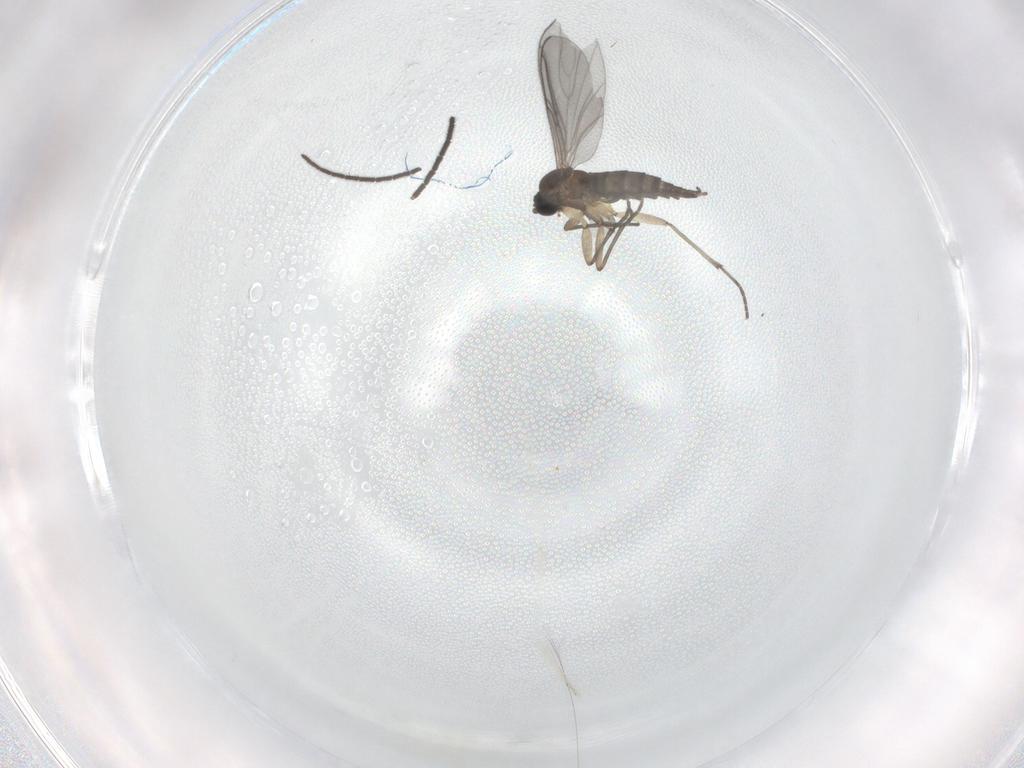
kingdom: Animalia
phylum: Arthropoda
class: Insecta
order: Diptera
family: Sciaridae
